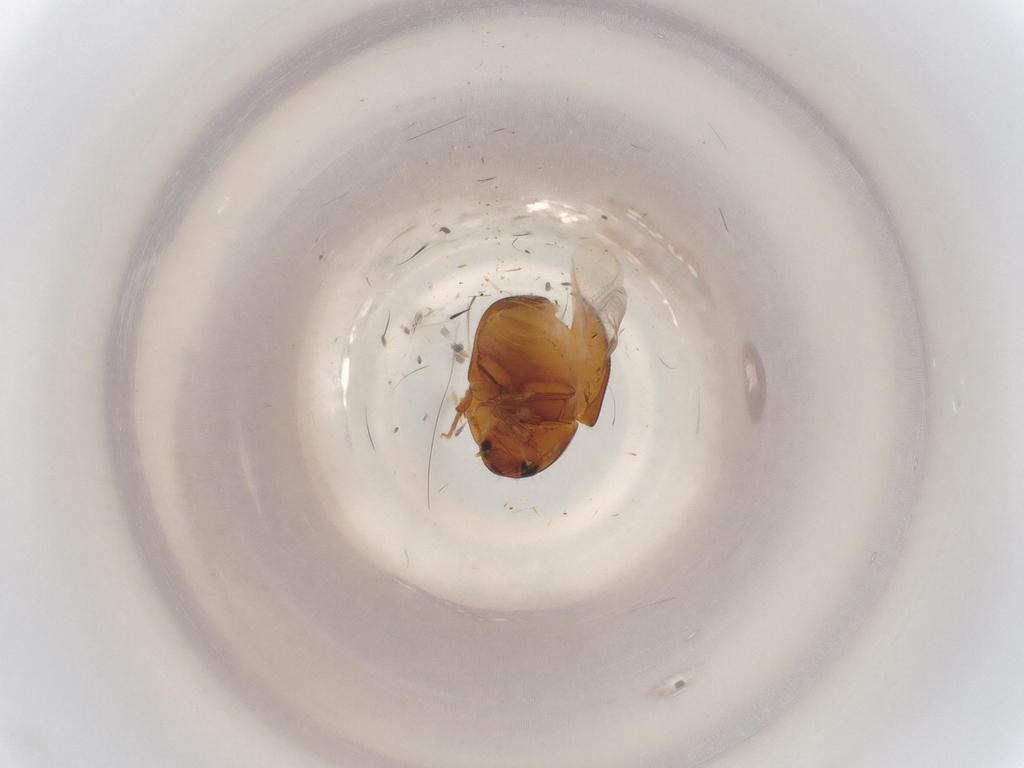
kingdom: Animalia
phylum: Arthropoda
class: Insecta
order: Coleoptera
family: Phalacridae
